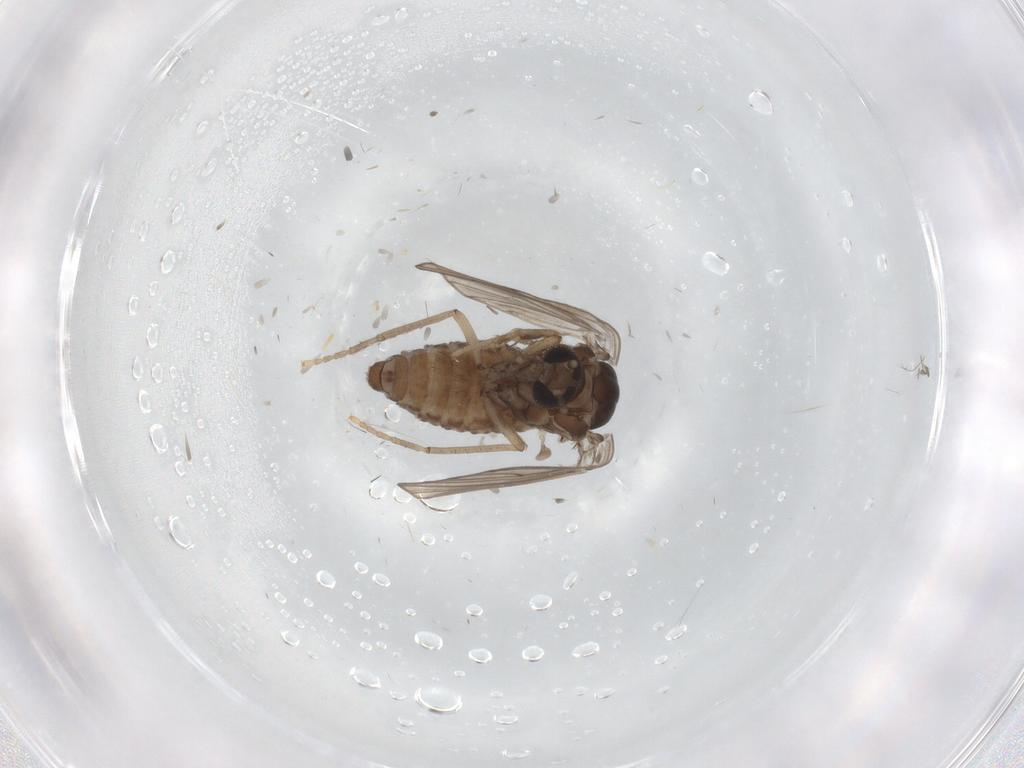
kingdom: Animalia
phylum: Arthropoda
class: Insecta
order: Diptera
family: Psychodidae
